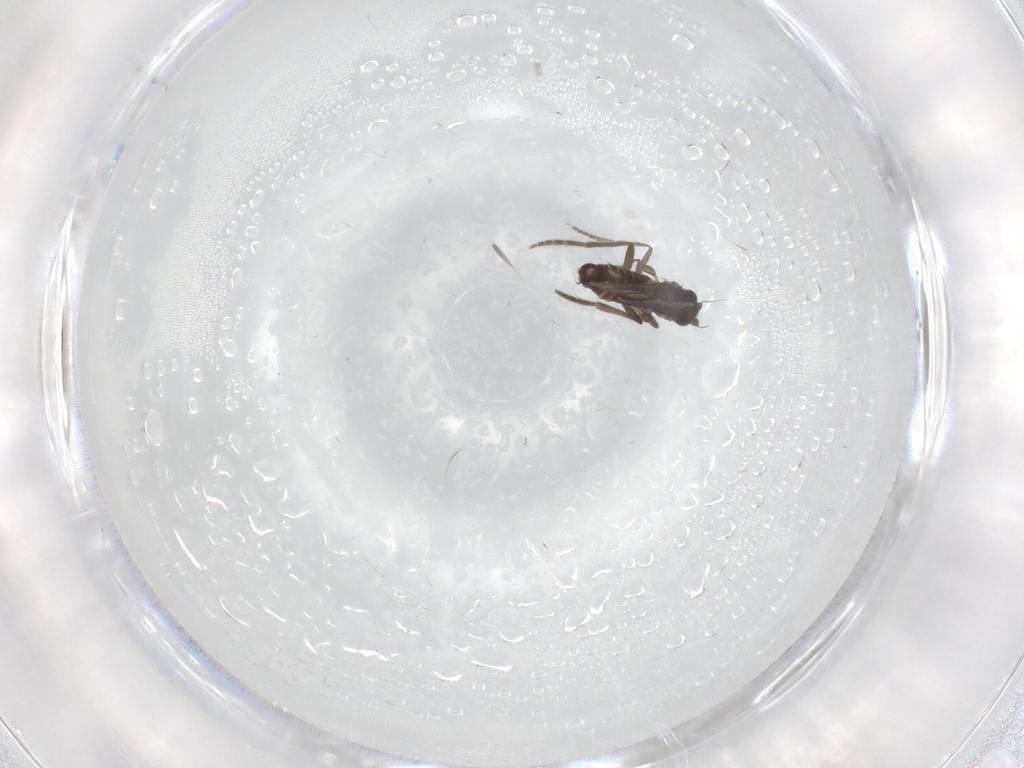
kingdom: Animalia
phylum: Arthropoda
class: Insecta
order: Diptera
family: Phoridae
